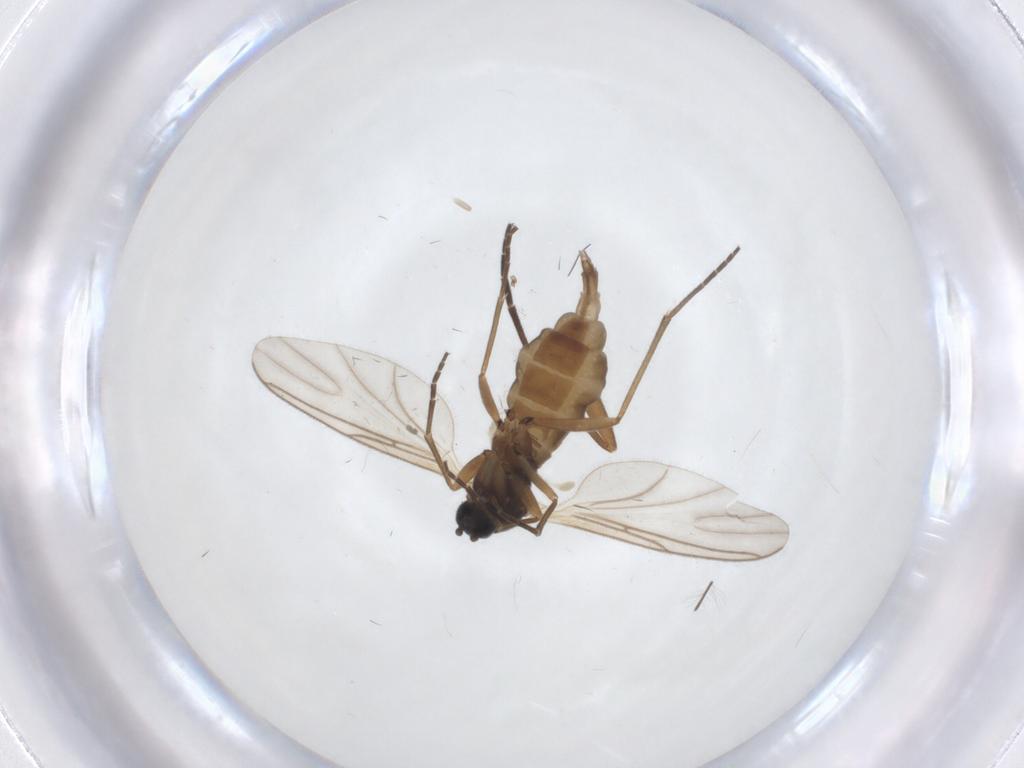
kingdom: Animalia
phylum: Arthropoda
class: Insecta
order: Diptera
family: Sciaridae
